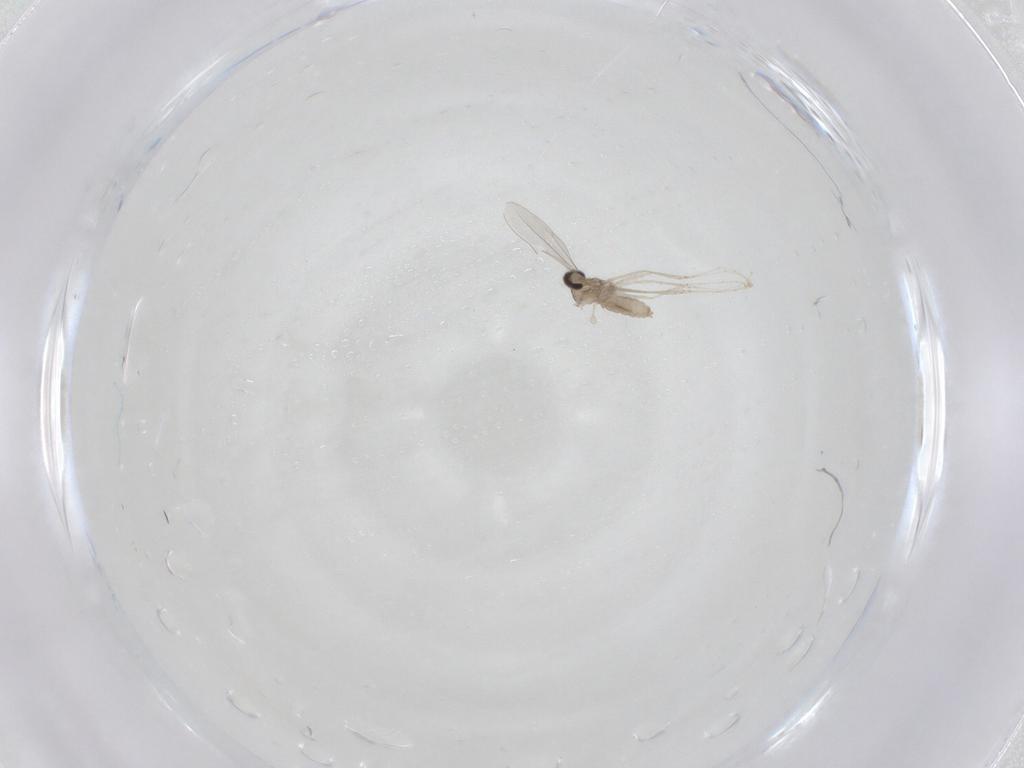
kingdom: Animalia
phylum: Arthropoda
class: Insecta
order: Diptera
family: Cecidomyiidae
